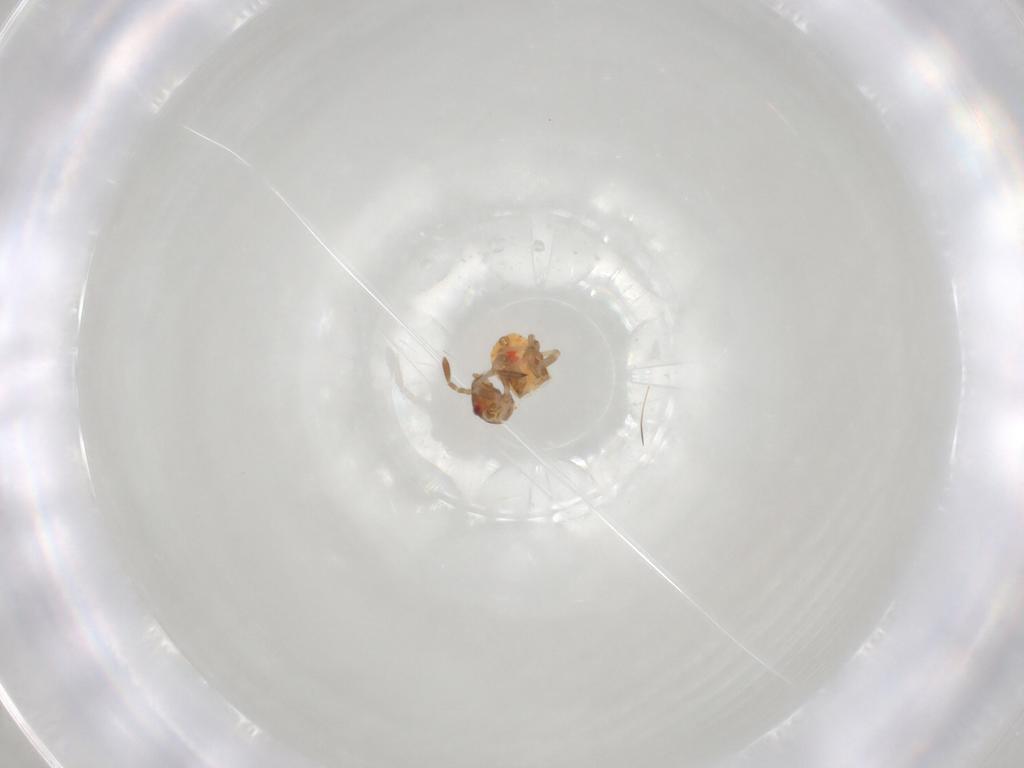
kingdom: Animalia
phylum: Arthropoda
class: Insecta
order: Hemiptera
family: Lygaeidae
